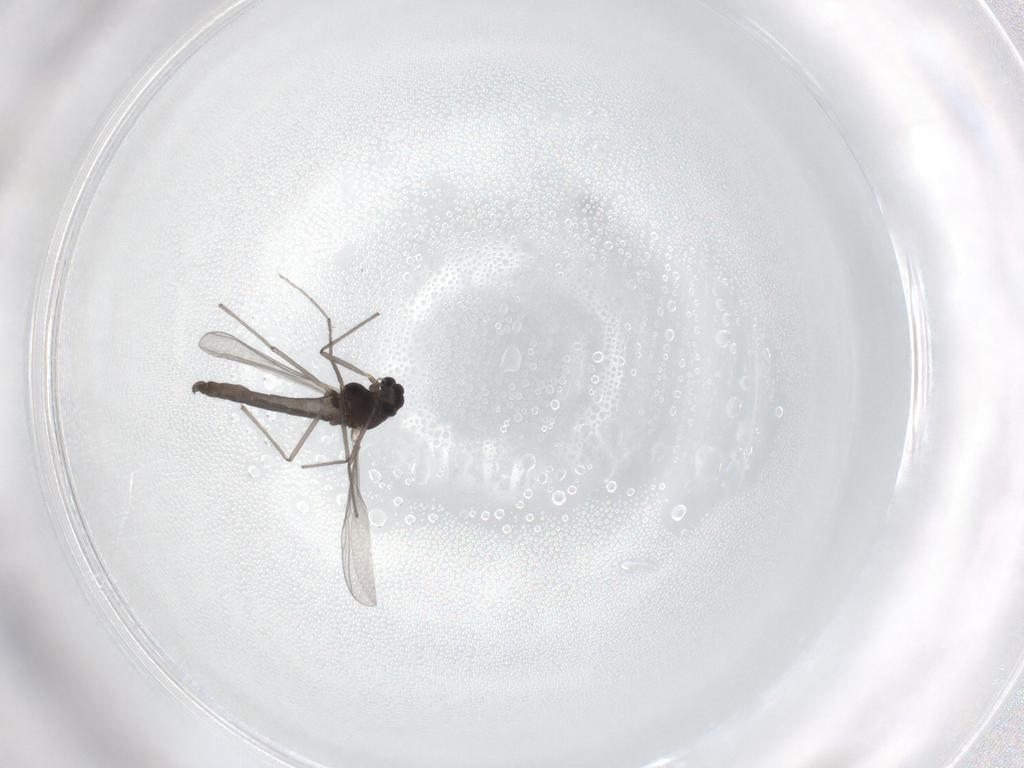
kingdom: Animalia
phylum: Arthropoda
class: Insecta
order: Diptera
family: Chironomidae
